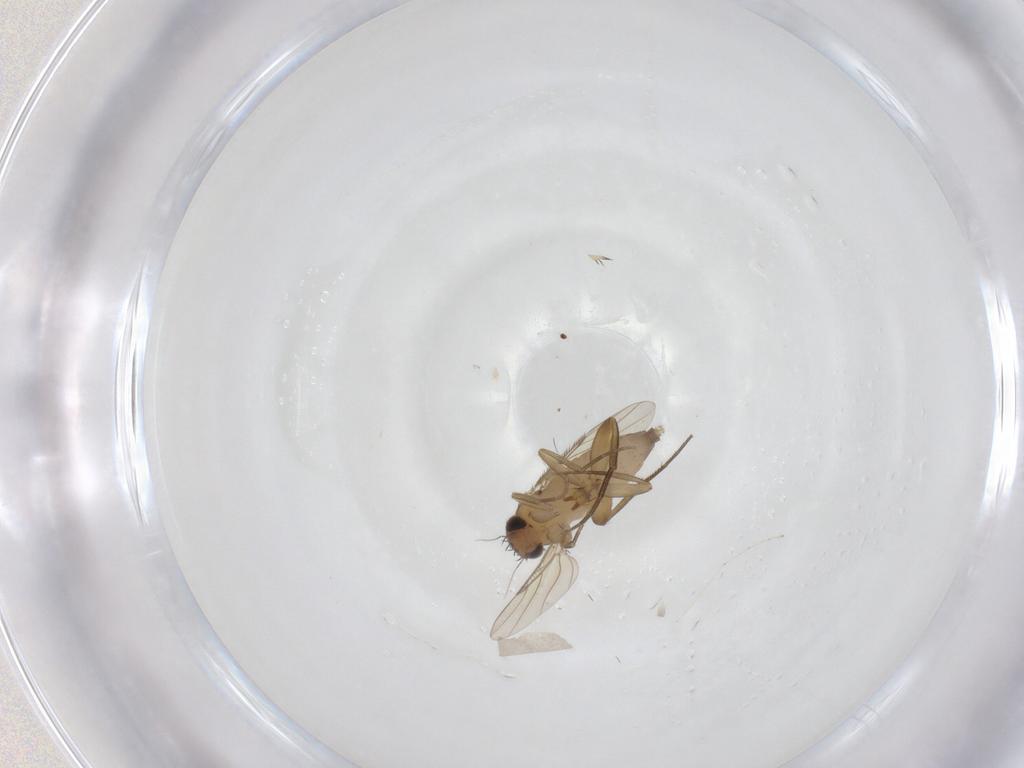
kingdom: Animalia
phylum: Arthropoda
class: Insecta
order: Diptera
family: Phoridae
